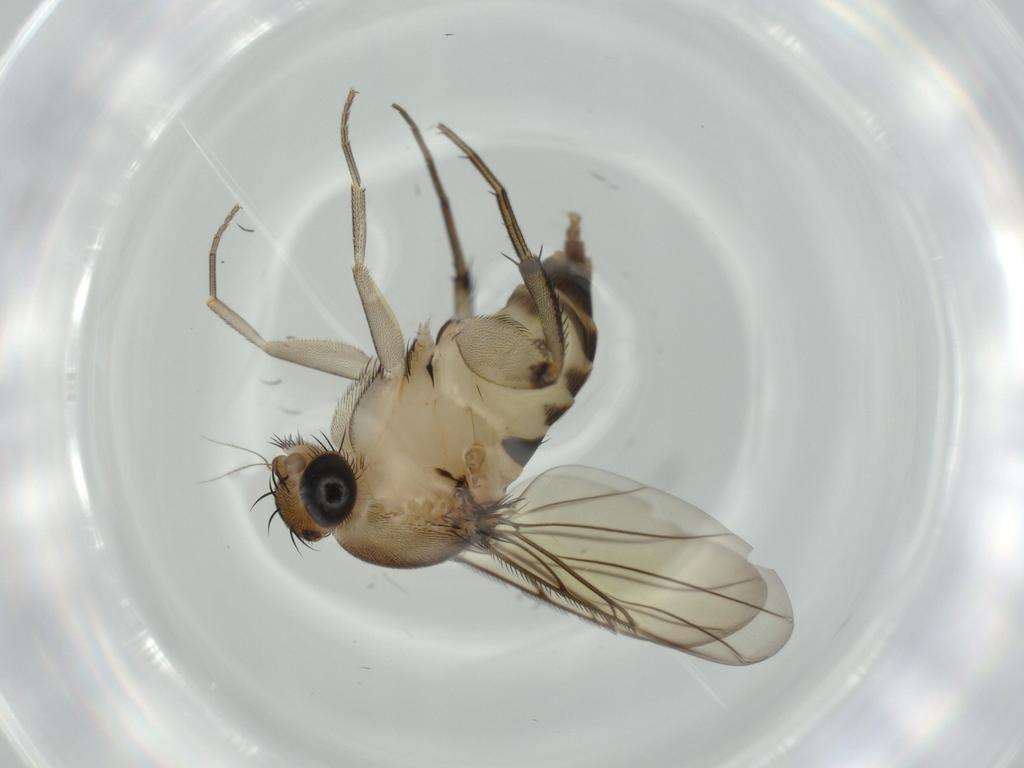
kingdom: Animalia
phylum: Arthropoda
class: Insecta
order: Diptera
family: Phoridae
